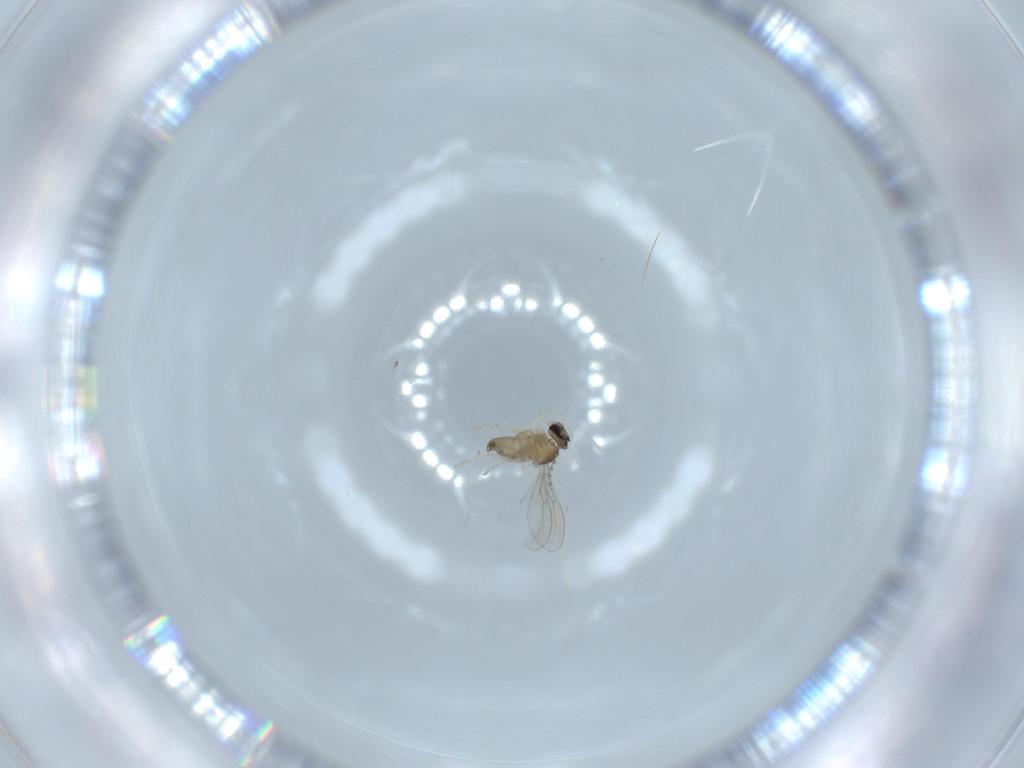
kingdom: Animalia
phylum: Arthropoda
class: Insecta
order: Diptera
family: Cecidomyiidae
